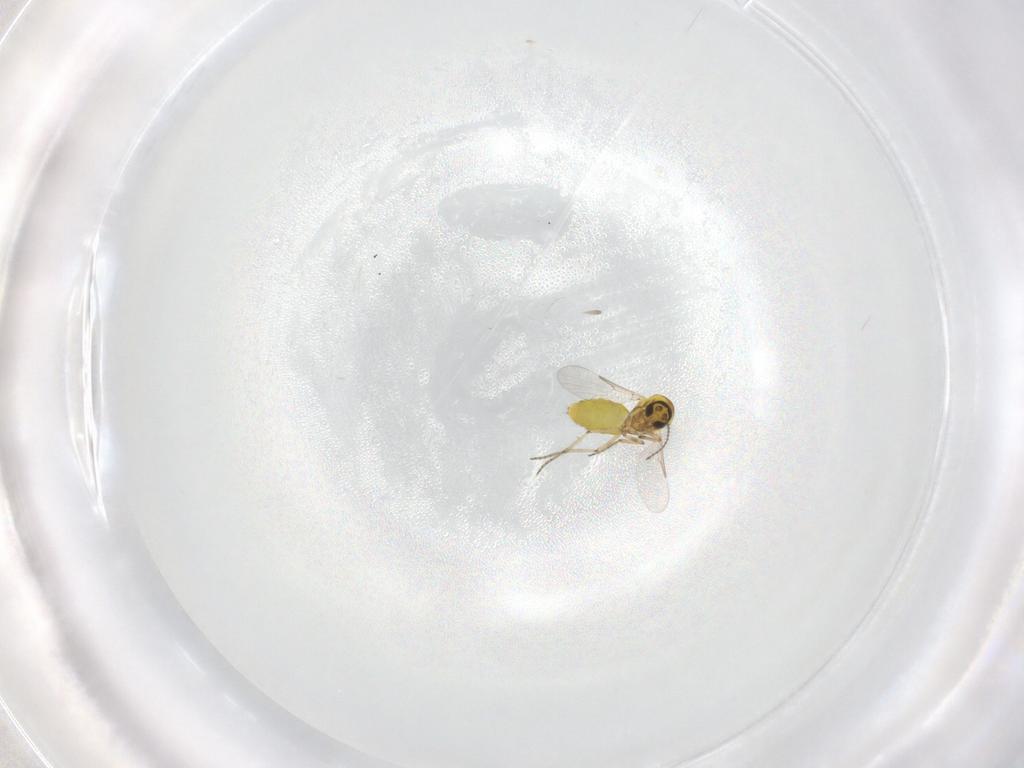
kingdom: Animalia
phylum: Arthropoda
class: Insecta
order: Diptera
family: Ceratopogonidae
